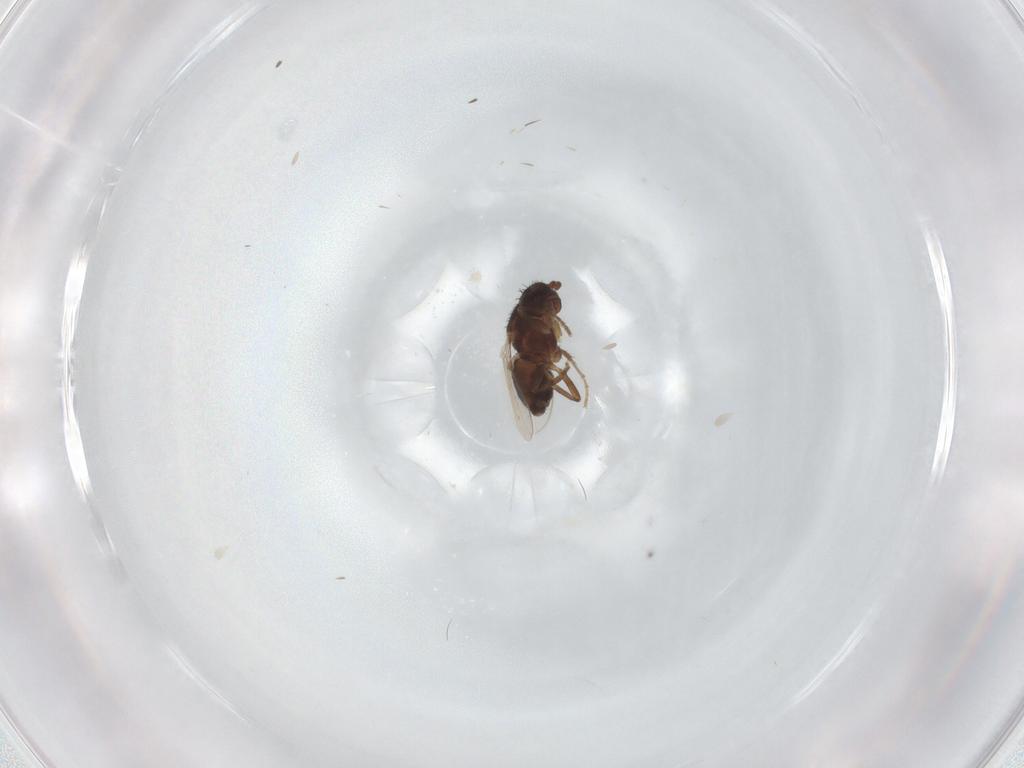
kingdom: Animalia
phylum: Arthropoda
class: Insecta
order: Diptera
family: Sphaeroceridae
